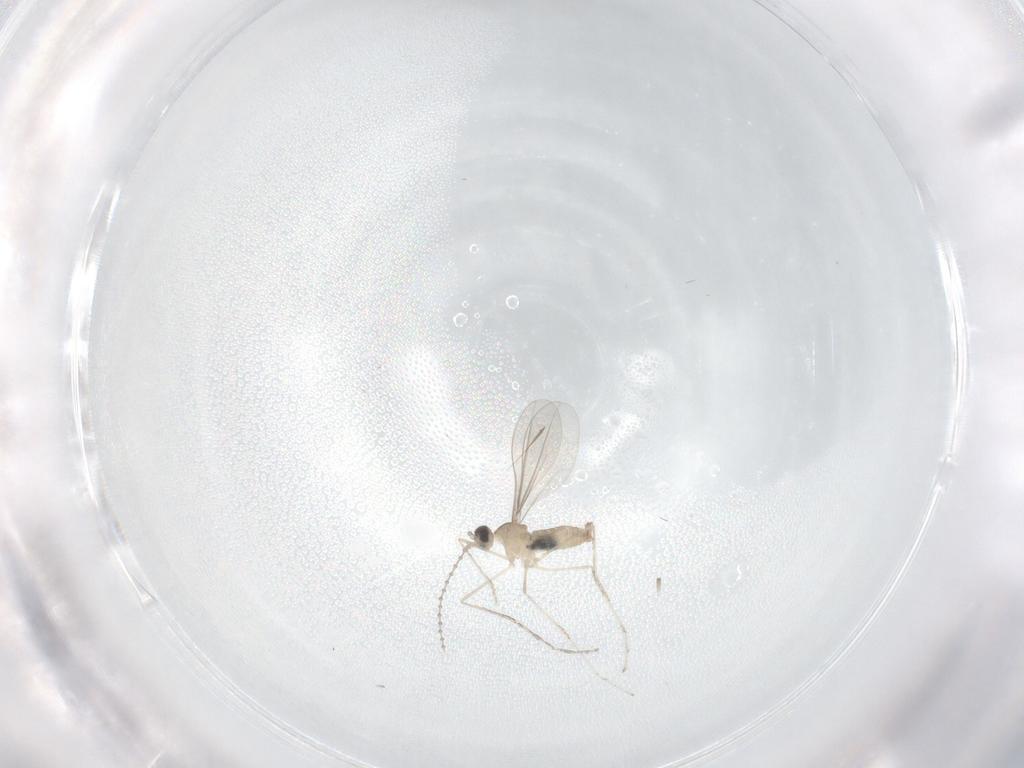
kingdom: Animalia
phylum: Arthropoda
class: Insecta
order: Diptera
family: Cecidomyiidae
